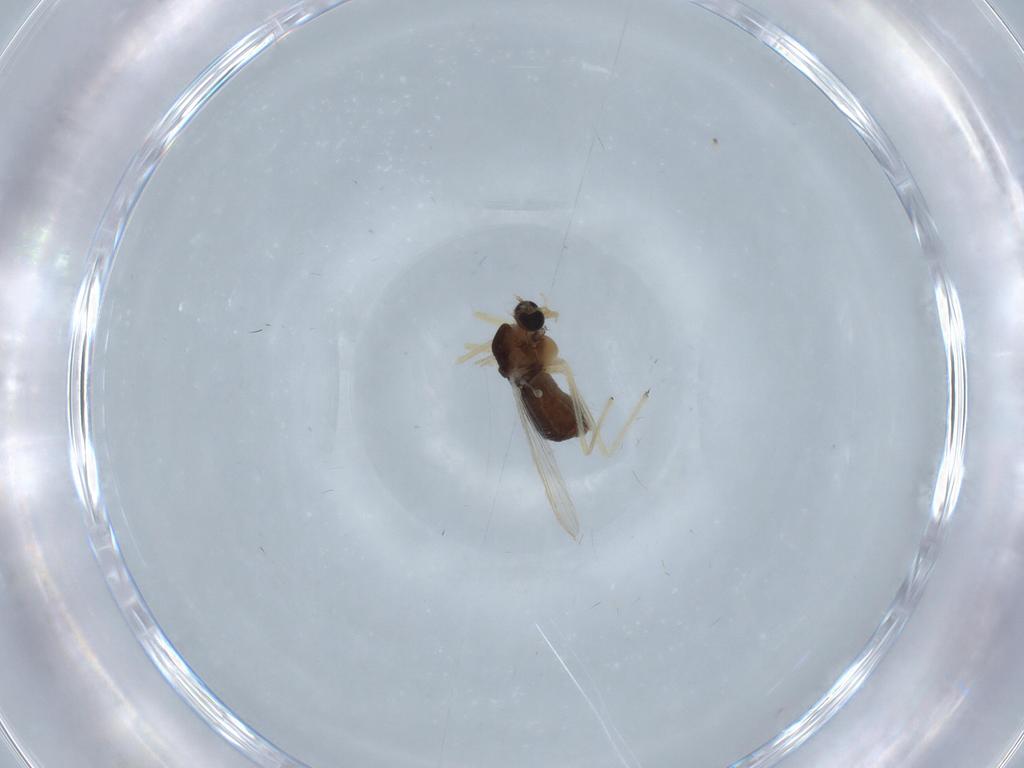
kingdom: Animalia
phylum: Arthropoda
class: Insecta
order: Diptera
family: Chironomidae
